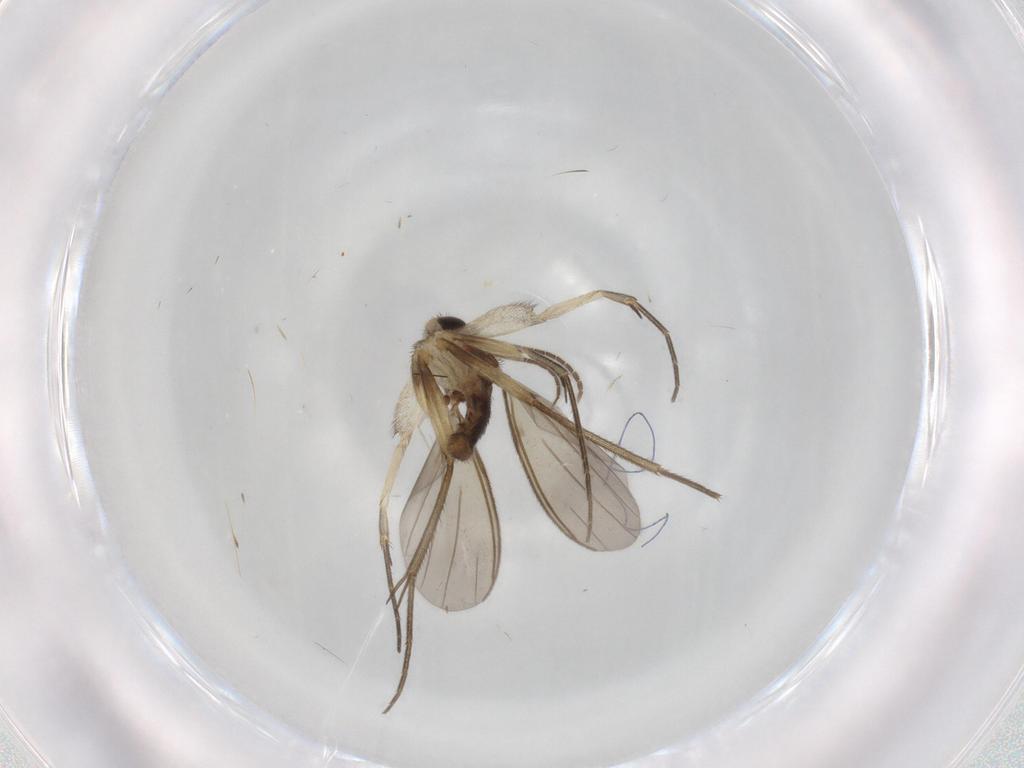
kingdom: Animalia
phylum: Arthropoda
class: Insecta
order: Diptera
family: Mycetophilidae
